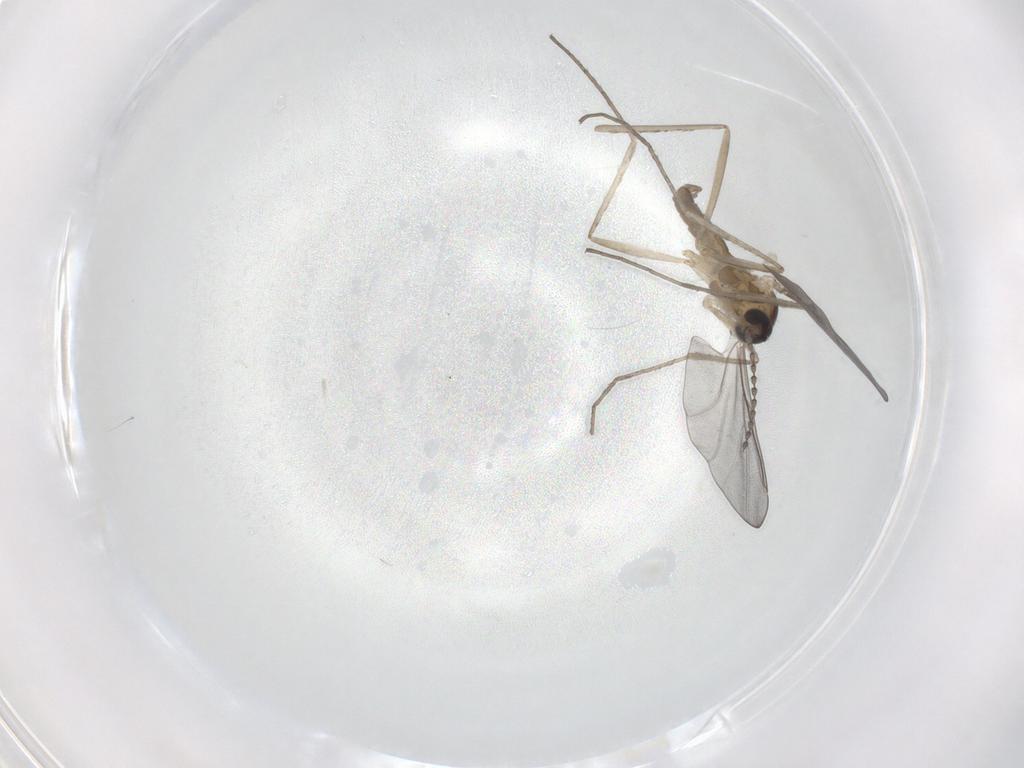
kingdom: Animalia
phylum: Arthropoda
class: Insecta
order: Diptera
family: Cecidomyiidae
